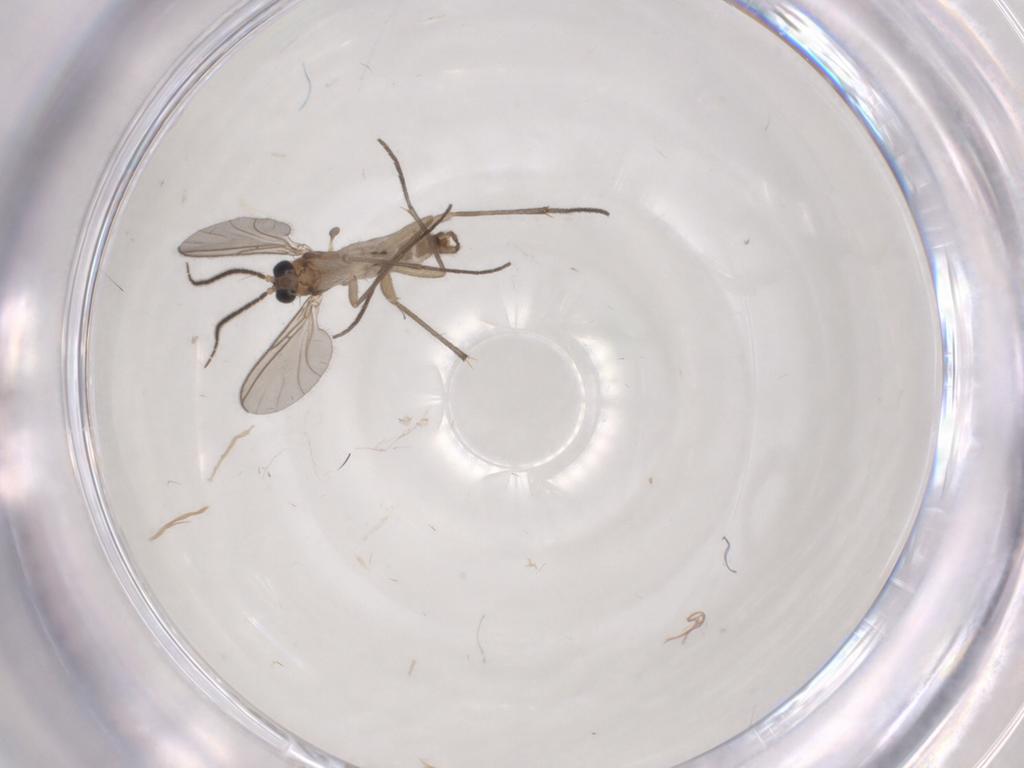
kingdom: Animalia
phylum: Arthropoda
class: Insecta
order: Diptera
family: Sciaridae
